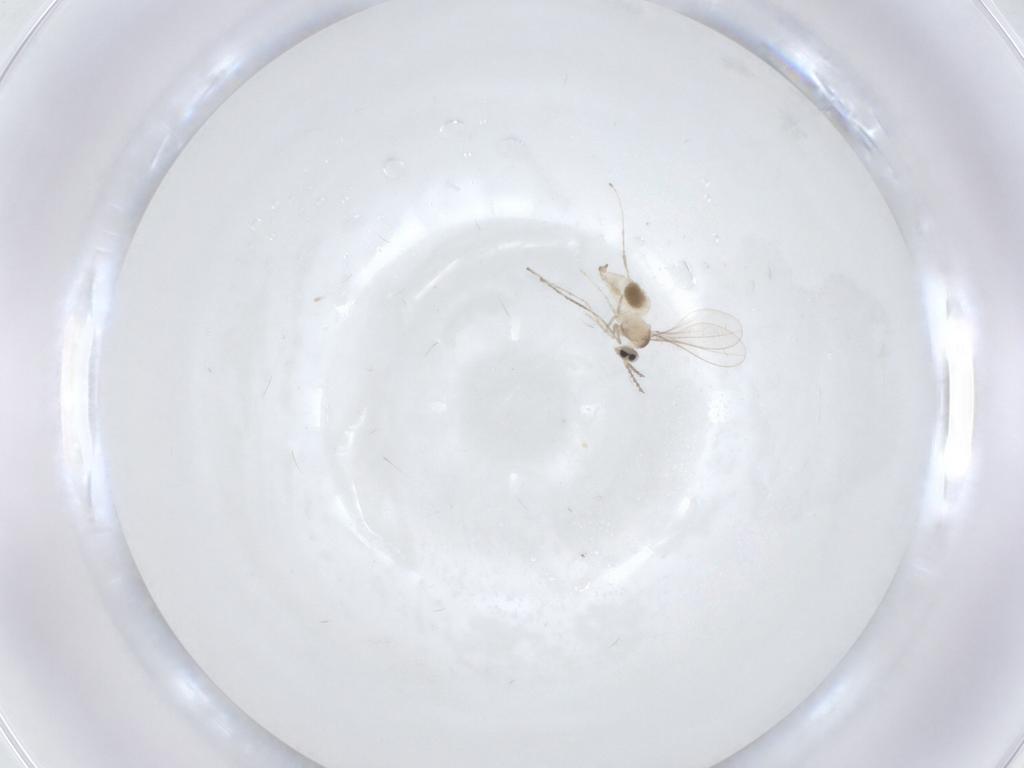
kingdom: Animalia
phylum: Arthropoda
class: Insecta
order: Diptera
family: Cecidomyiidae
